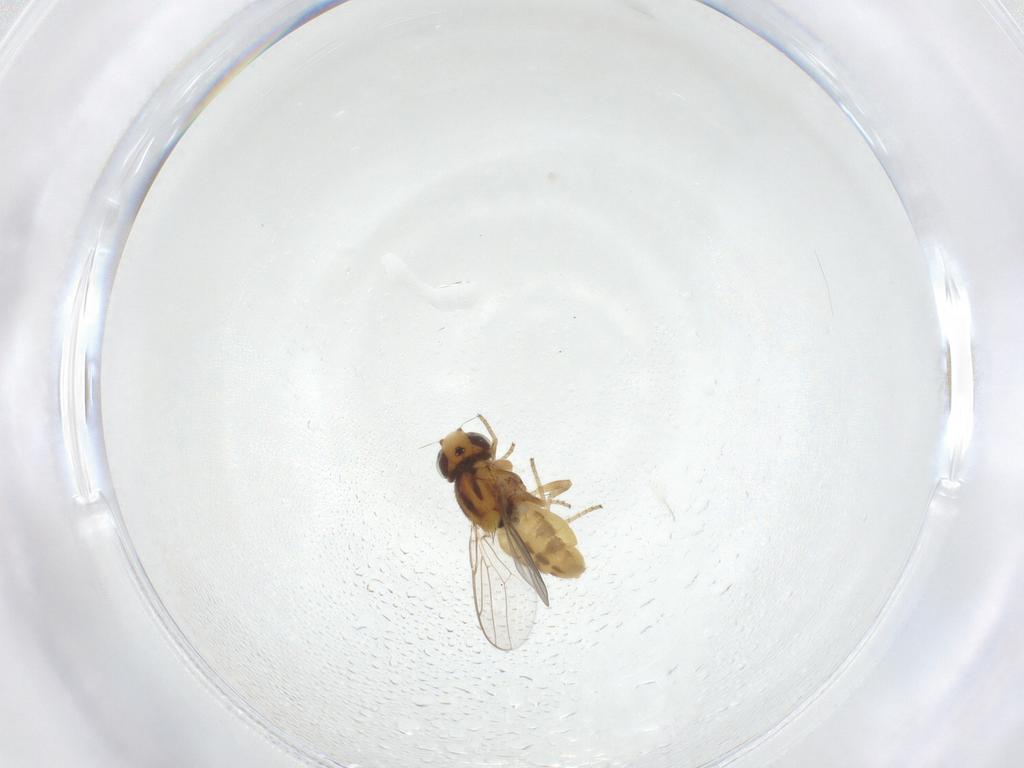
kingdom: Animalia
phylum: Arthropoda
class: Insecta
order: Diptera
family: Chloropidae
